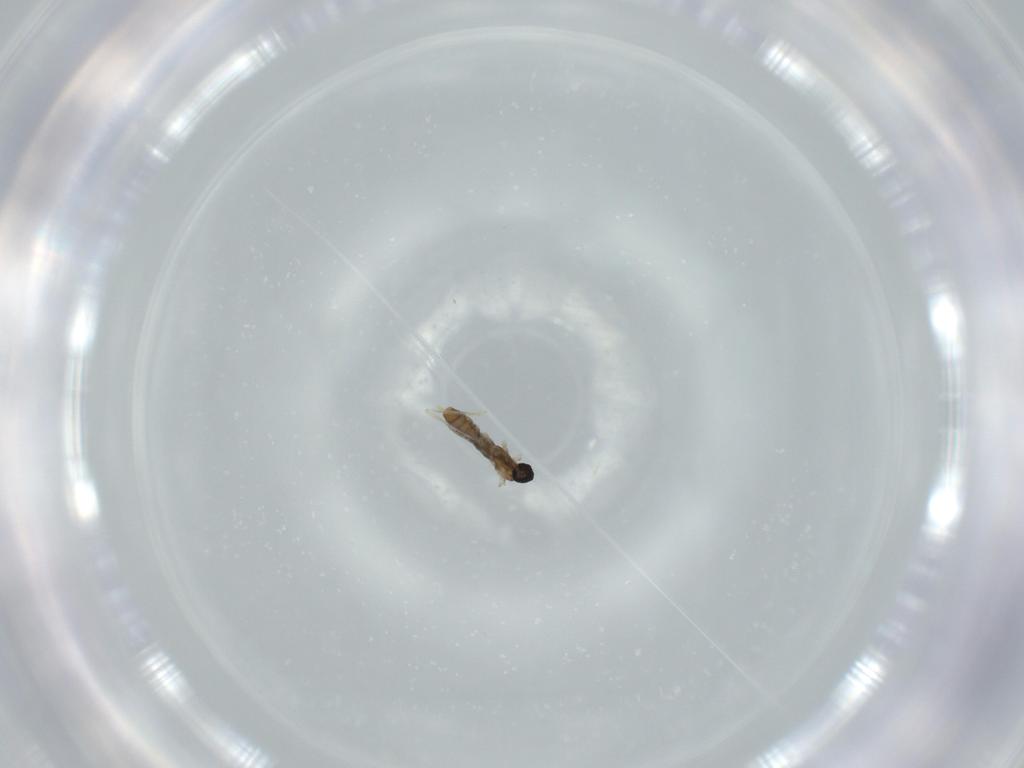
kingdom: Animalia
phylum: Arthropoda
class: Insecta
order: Diptera
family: Cecidomyiidae
